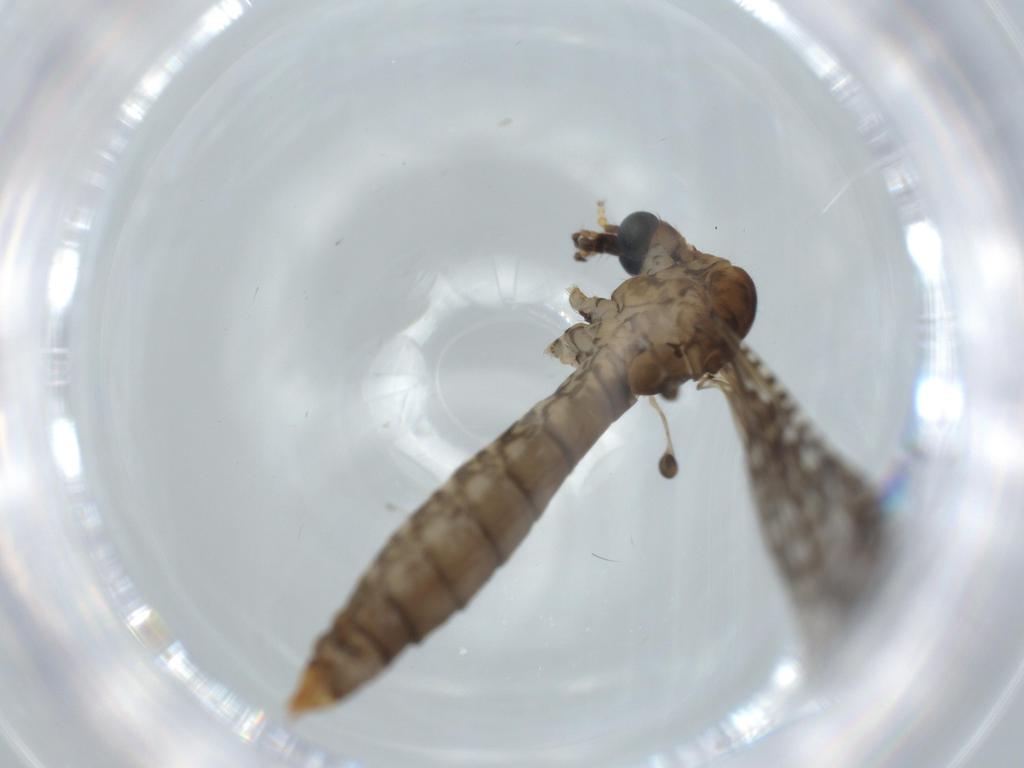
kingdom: Animalia
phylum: Arthropoda
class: Insecta
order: Diptera
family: Limoniidae
